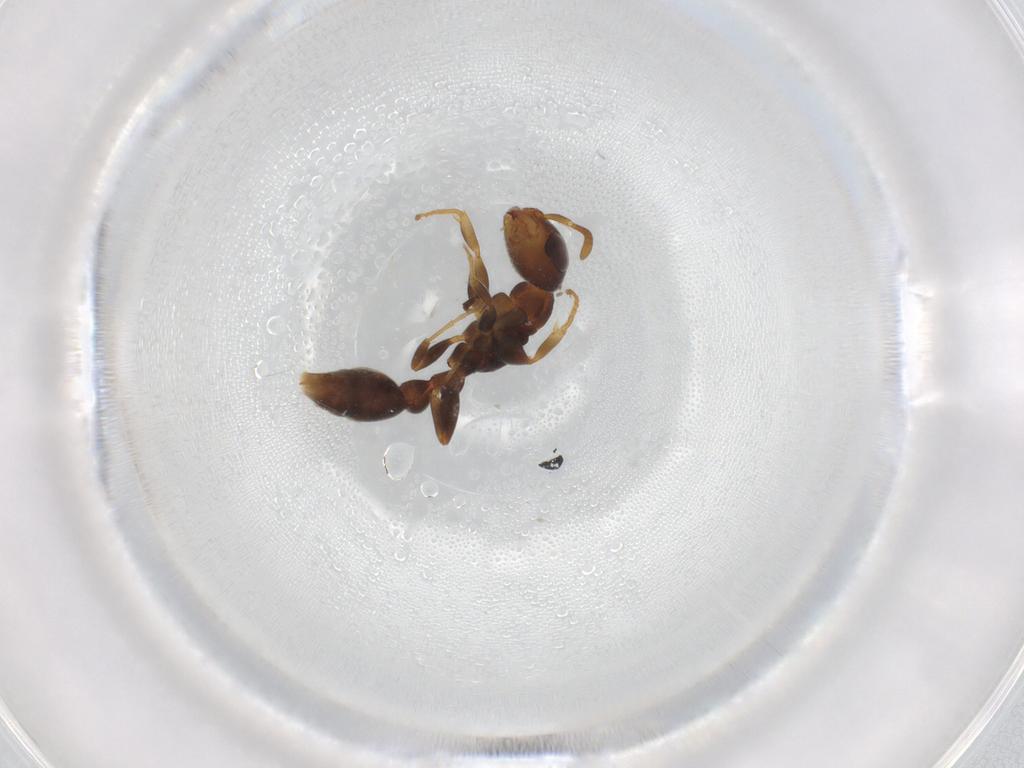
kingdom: Animalia
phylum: Arthropoda
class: Insecta
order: Hymenoptera
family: Formicidae
